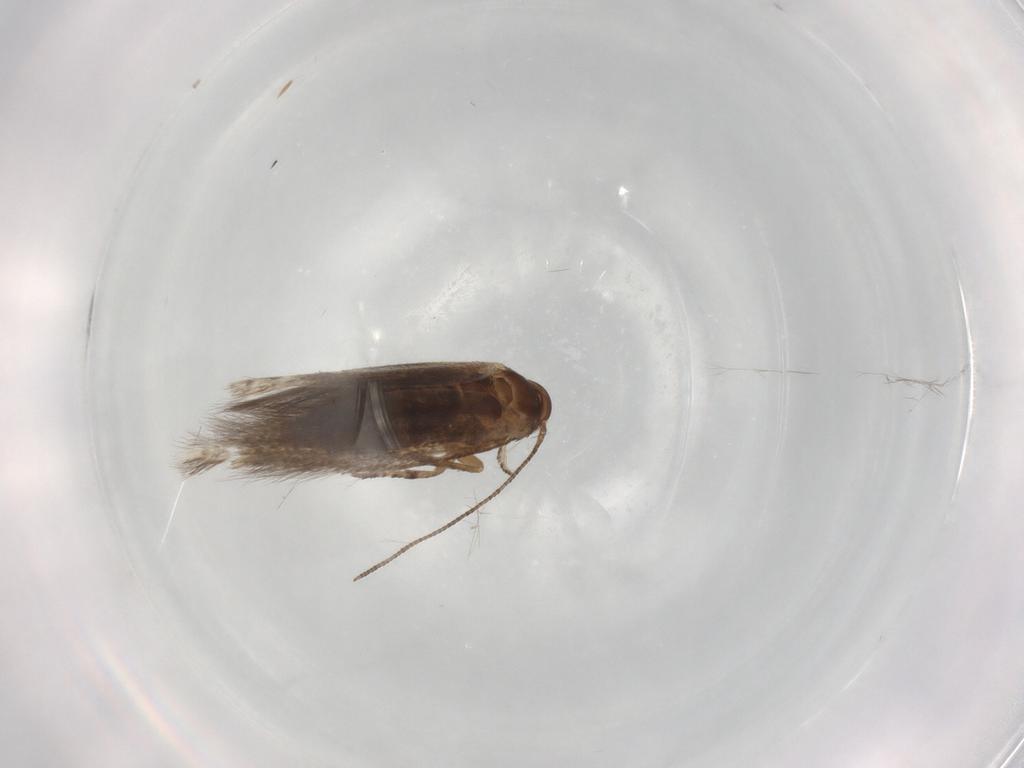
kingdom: Animalia
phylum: Arthropoda
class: Insecta
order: Lepidoptera
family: Elachistidae
